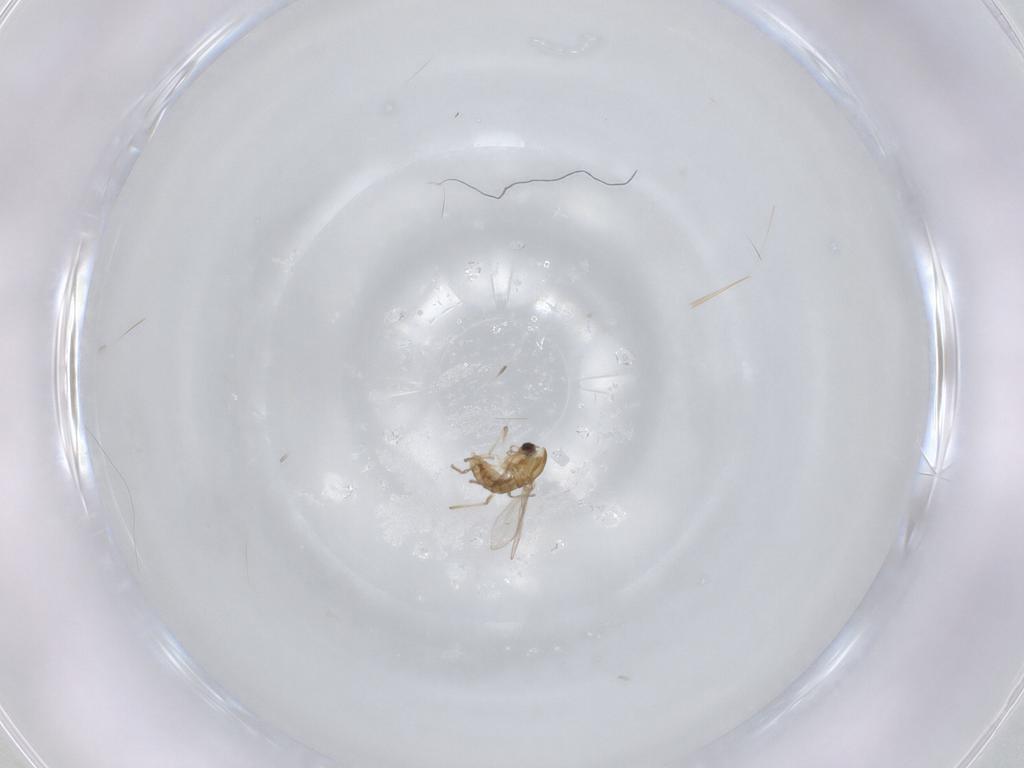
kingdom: Animalia
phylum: Arthropoda
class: Insecta
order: Diptera
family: Chironomidae
